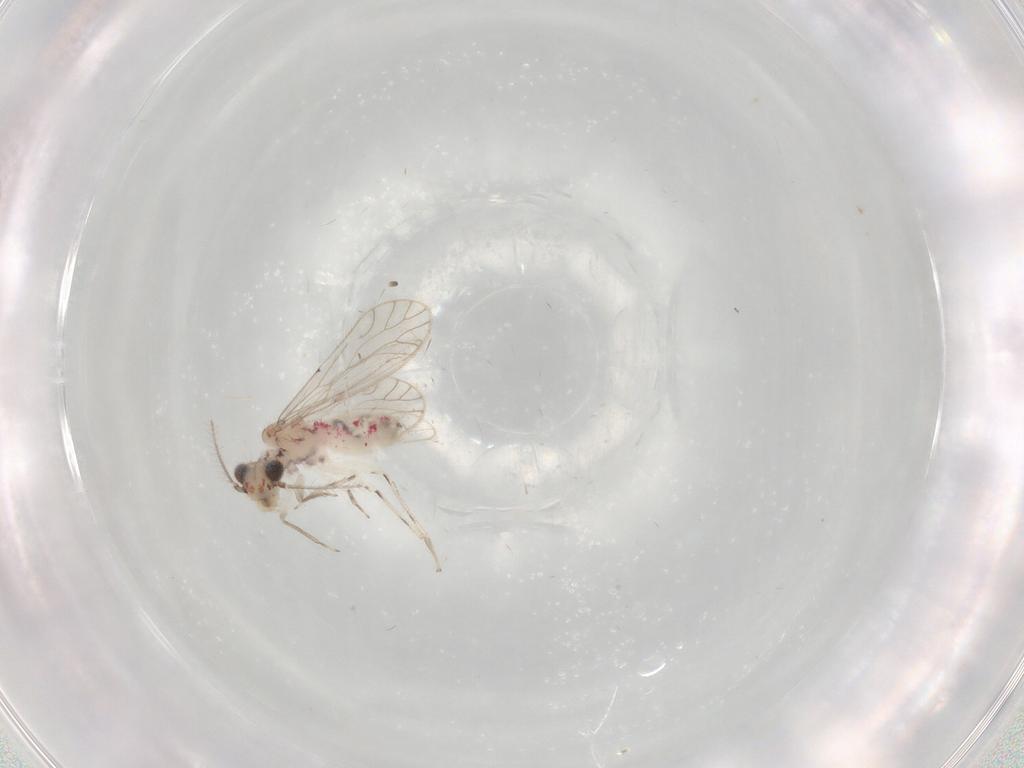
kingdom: Animalia
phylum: Arthropoda
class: Insecta
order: Psocodea
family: Caeciliusidae
